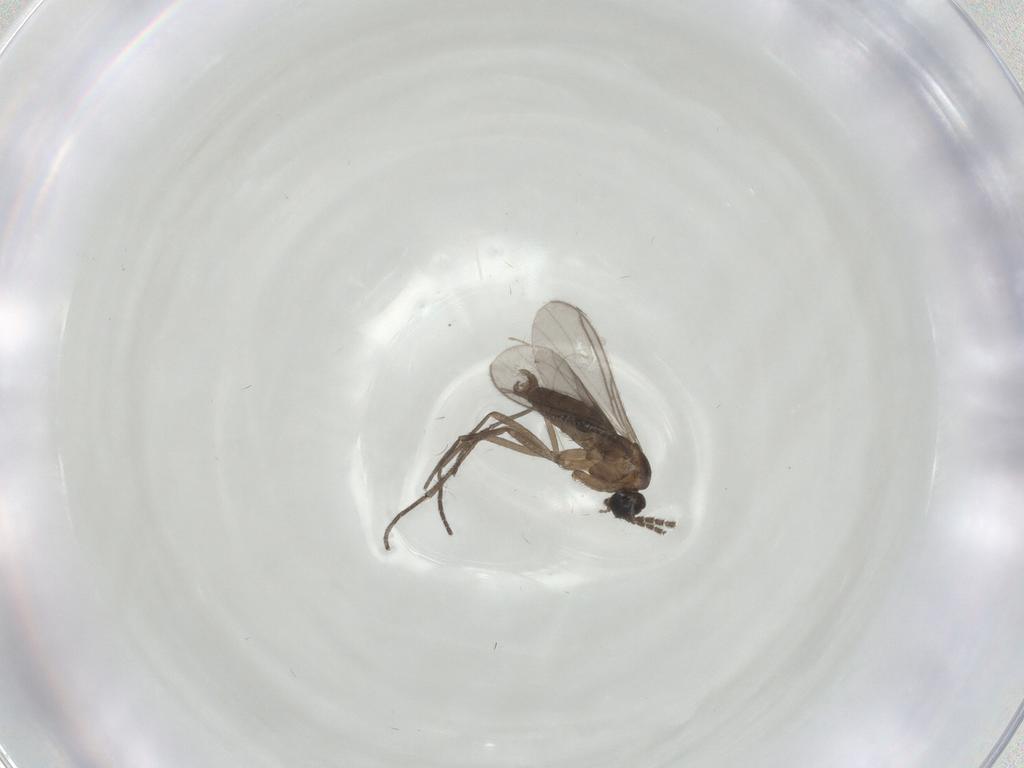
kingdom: Animalia
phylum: Arthropoda
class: Insecta
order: Diptera
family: Sciaridae
